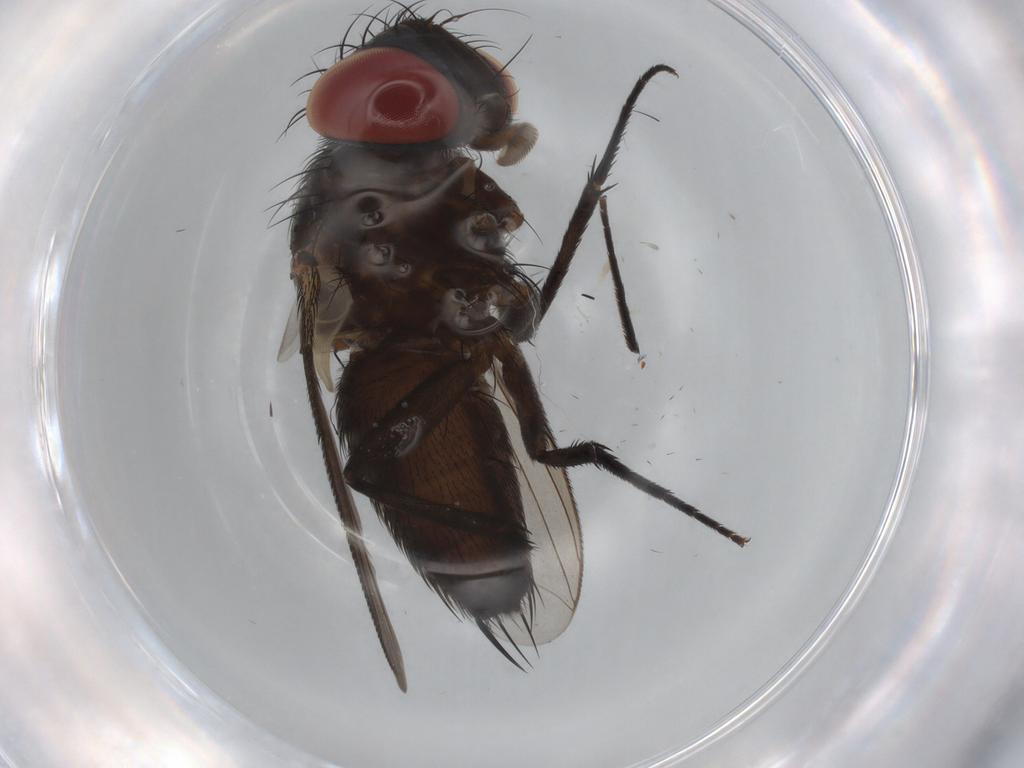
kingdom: Animalia
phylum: Arthropoda
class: Insecta
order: Diptera
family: Sarcophagidae
